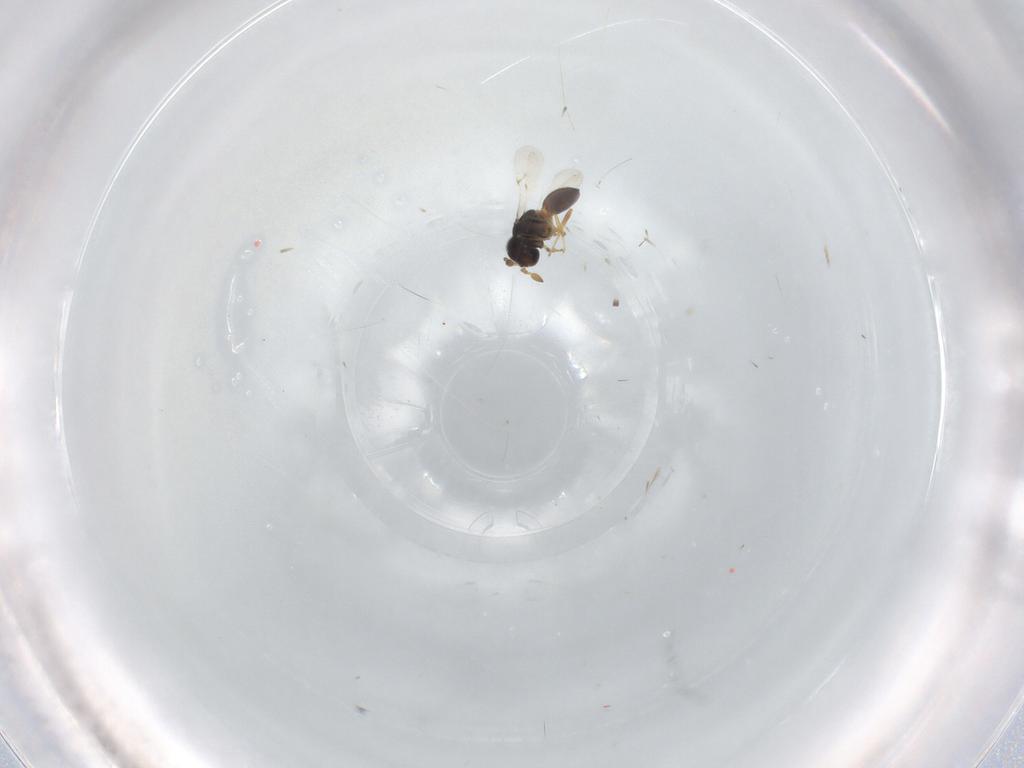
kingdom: Animalia
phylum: Arthropoda
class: Insecta
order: Hymenoptera
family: Scelionidae
